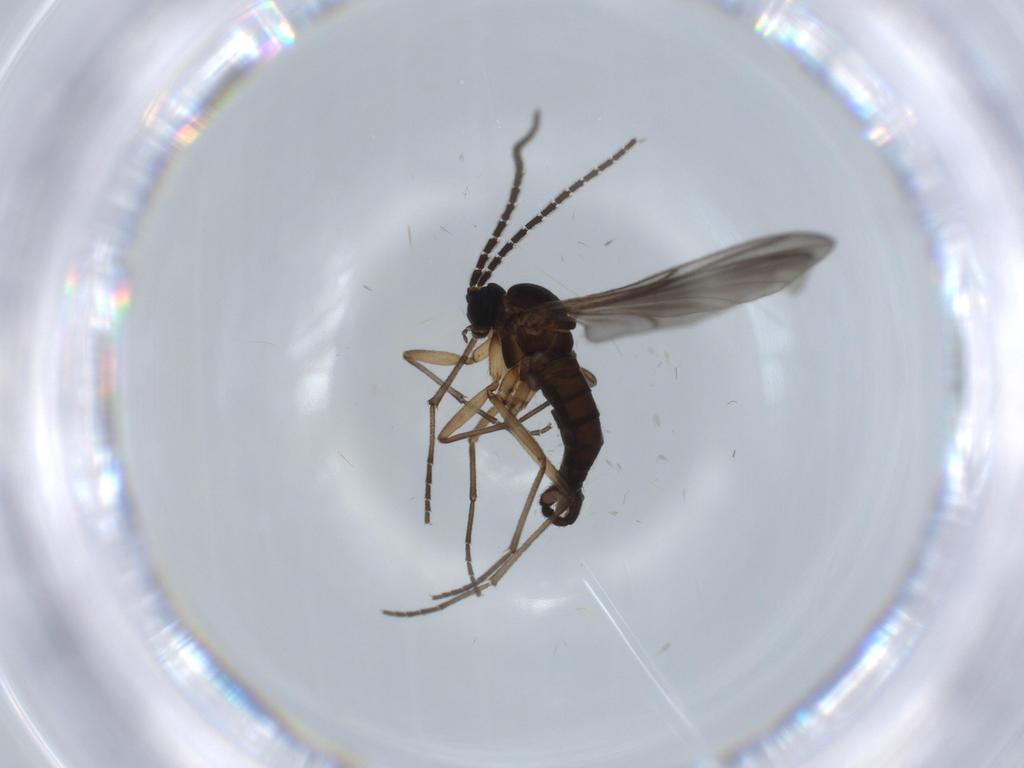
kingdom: Animalia
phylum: Arthropoda
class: Insecta
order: Diptera
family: Sciaridae
